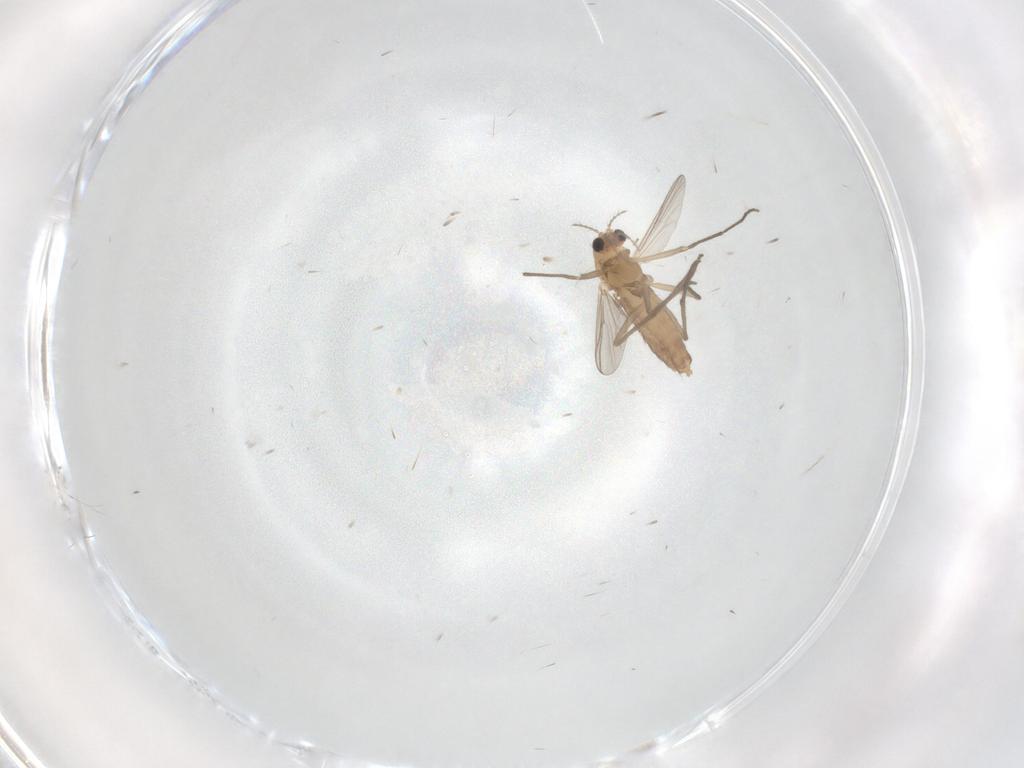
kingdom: Animalia
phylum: Arthropoda
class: Insecta
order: Diptera
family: Chironomidae
